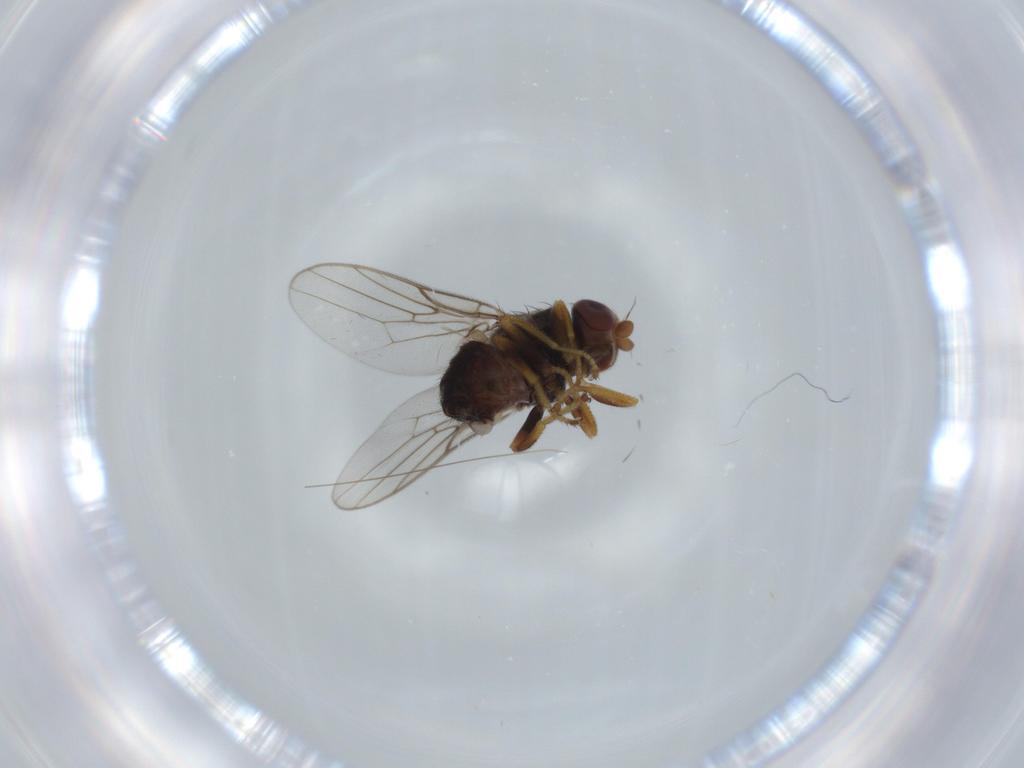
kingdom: Animalia
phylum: Arthropoda
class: Insecta
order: Diptera
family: Chloropidae
